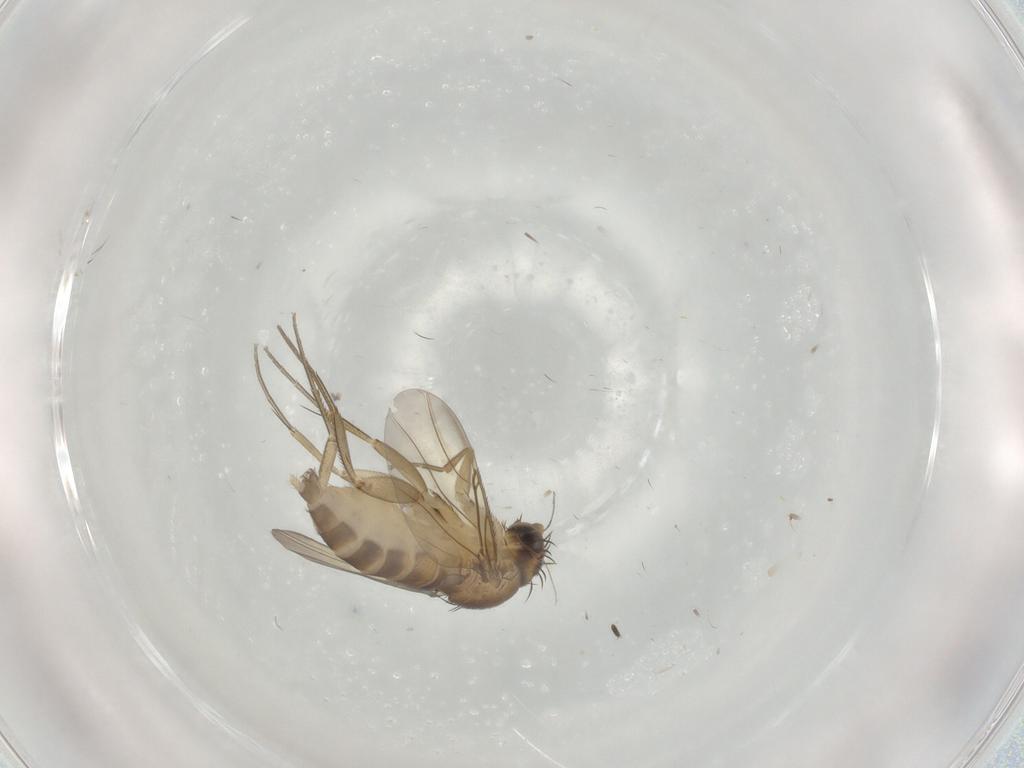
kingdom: Animalia
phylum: Arthropoda
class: Insecta
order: Diptera
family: Phoridae
